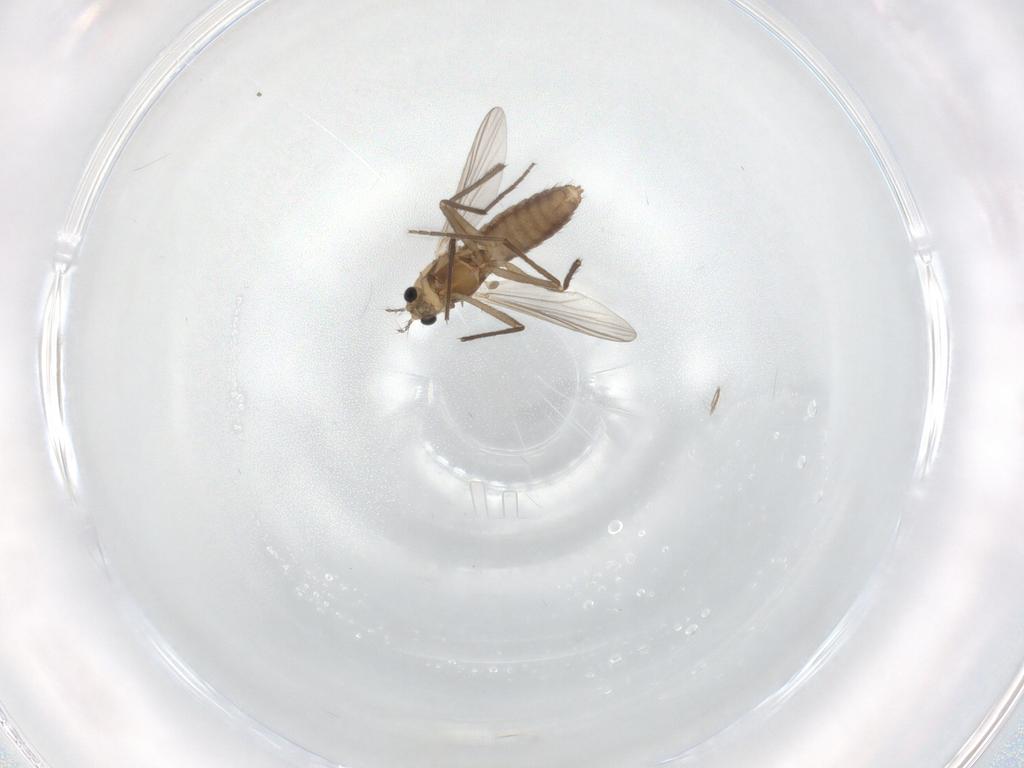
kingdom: Animalia
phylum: Arthropoda
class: Insecta
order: Diptera
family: Chironomidae
